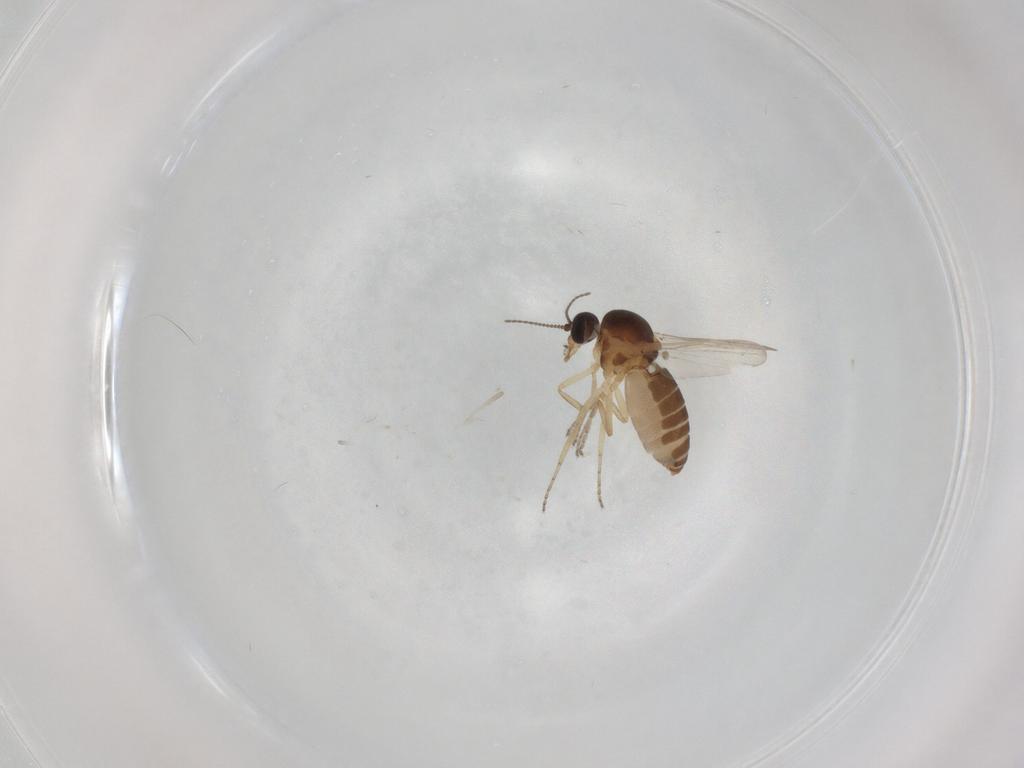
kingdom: Animalia
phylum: Arthropoda
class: Insecta
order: Diptera
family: Ceratopogonidae
